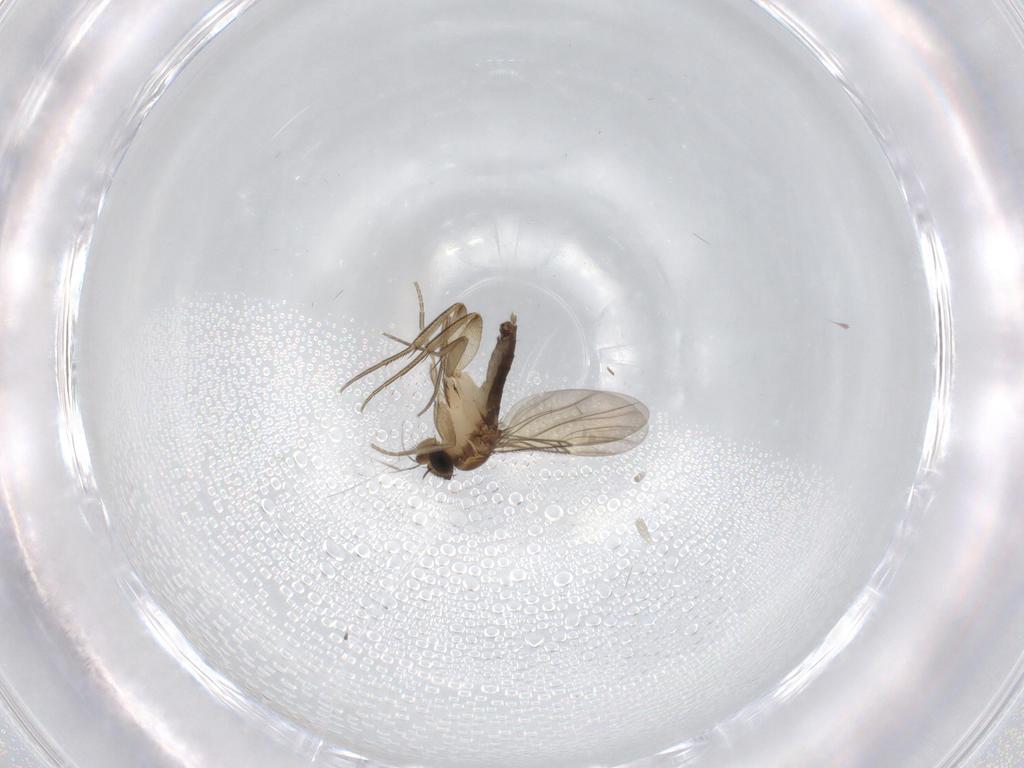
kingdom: Animalia
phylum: Arthropoda
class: Insecta
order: Diptera
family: Phoridae
